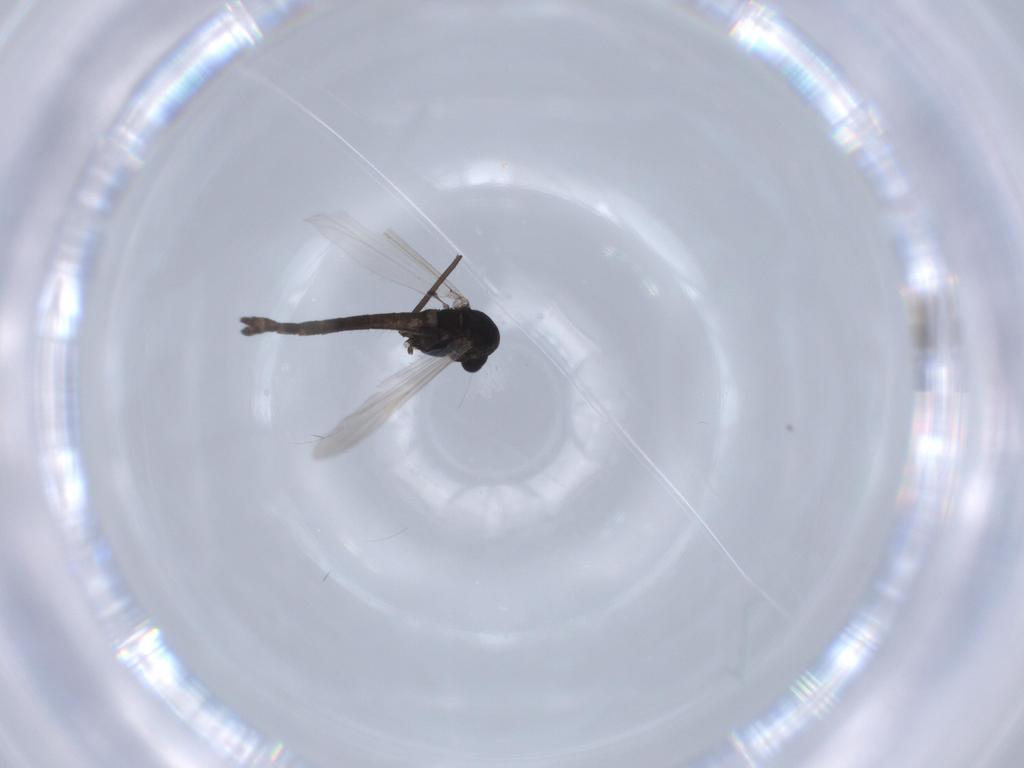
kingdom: Animalia
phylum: Arthropoda
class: Insecta
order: Diptera
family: Chironomidae
